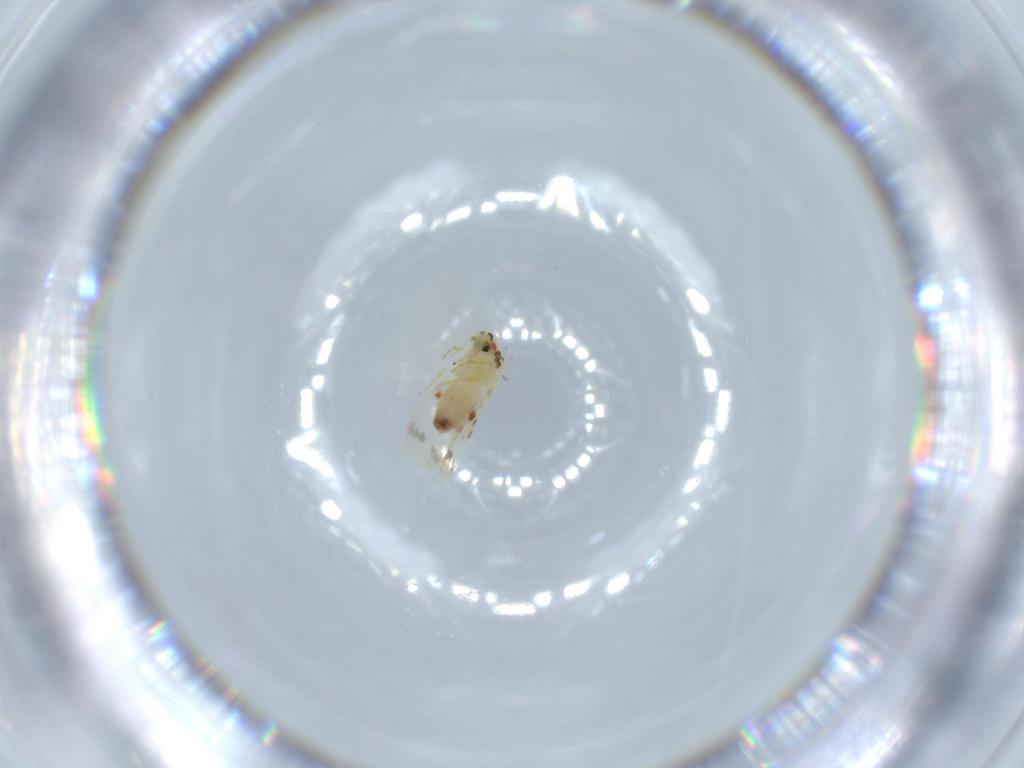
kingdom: Animalia
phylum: Arthropoda
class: Insecta
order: Hemiptera
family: Aleyrodidae
